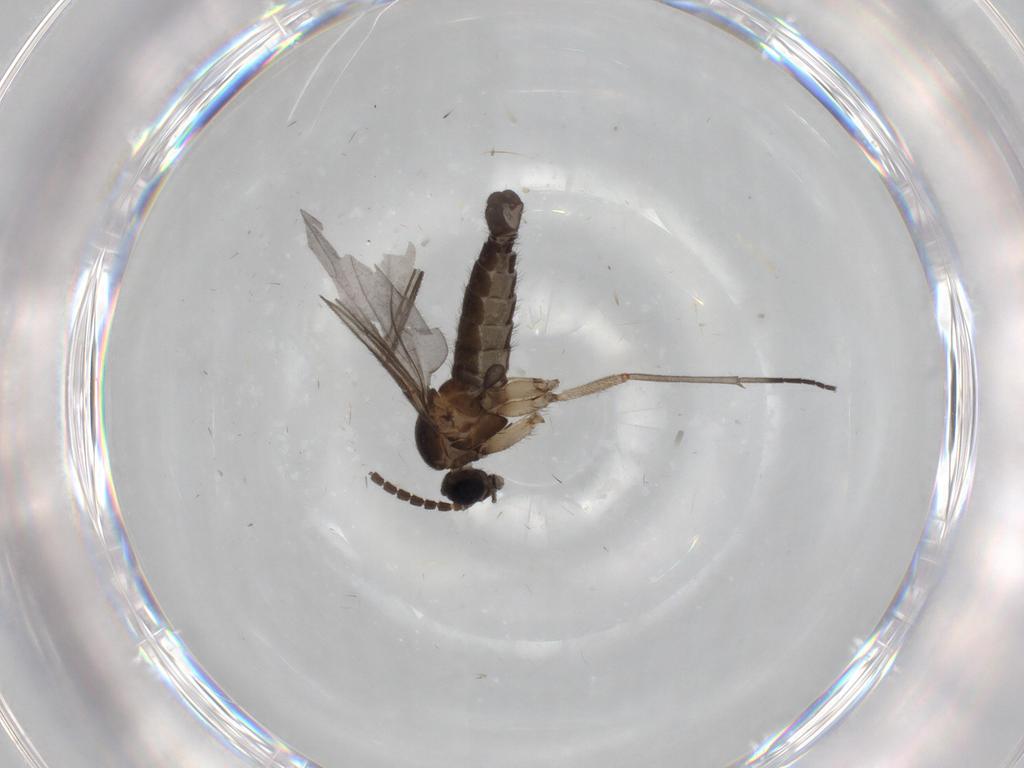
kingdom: Animalia
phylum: Arthropoda
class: Insecta
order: Diptera
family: Sciaridae
